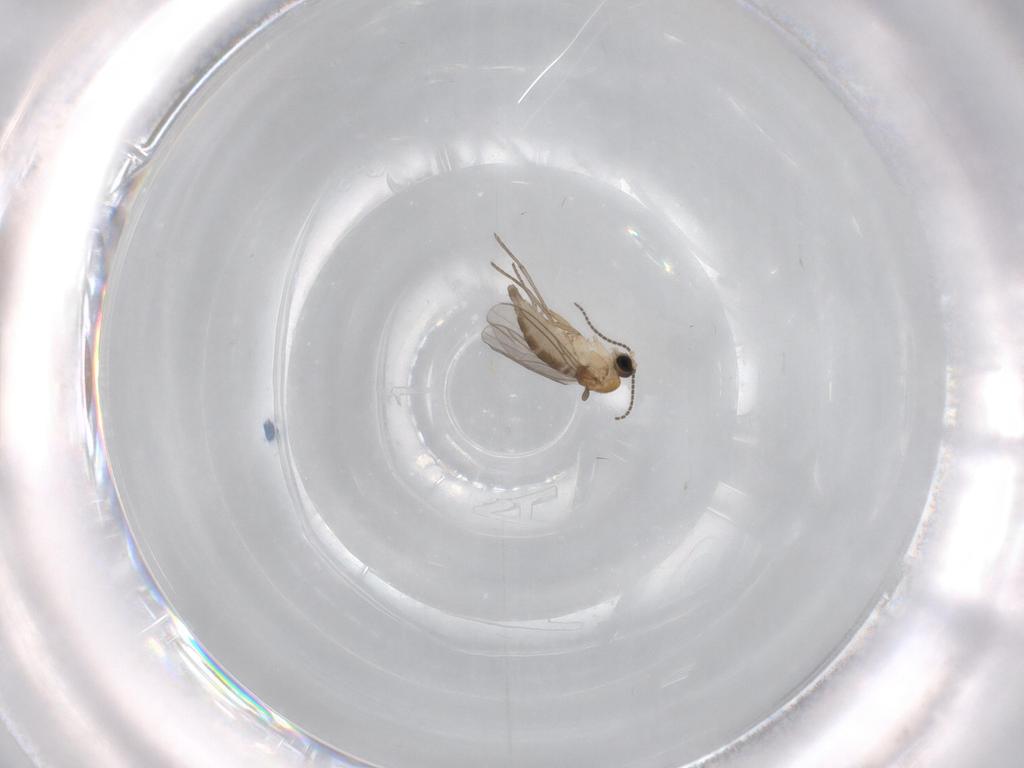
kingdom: Animalia
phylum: Arthropoda
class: Insecta
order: Diptera
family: Sciaridae
